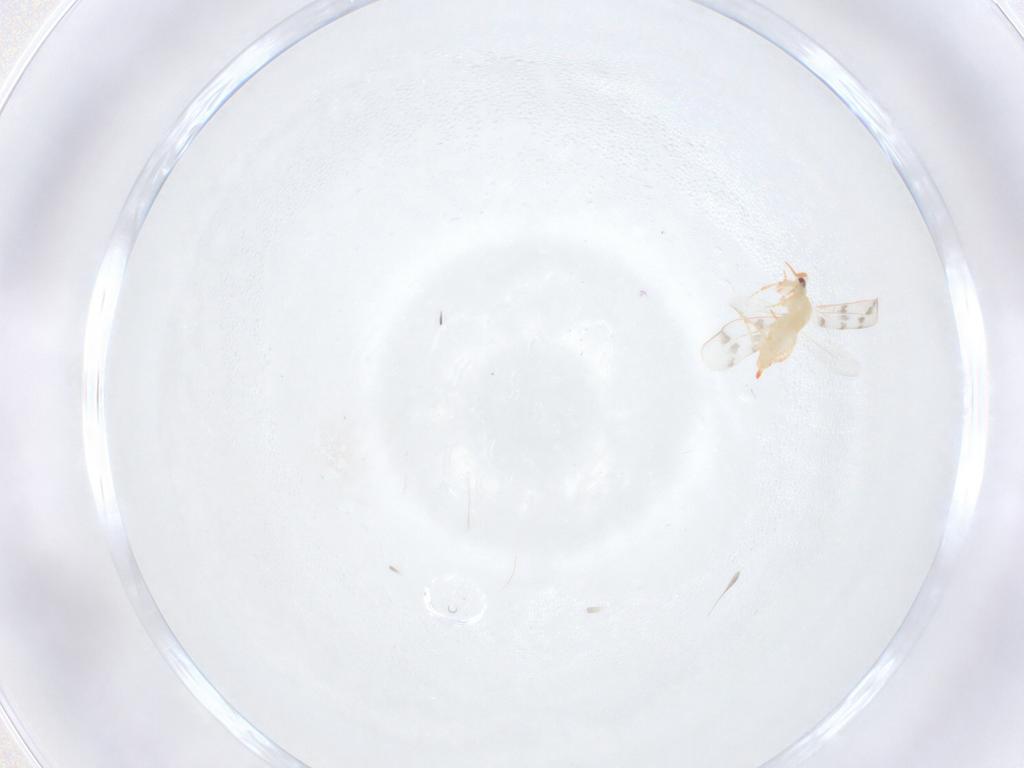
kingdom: Animalia
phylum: Arthropoda
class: Insecta
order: Hemiptera
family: Aleyrodidae
